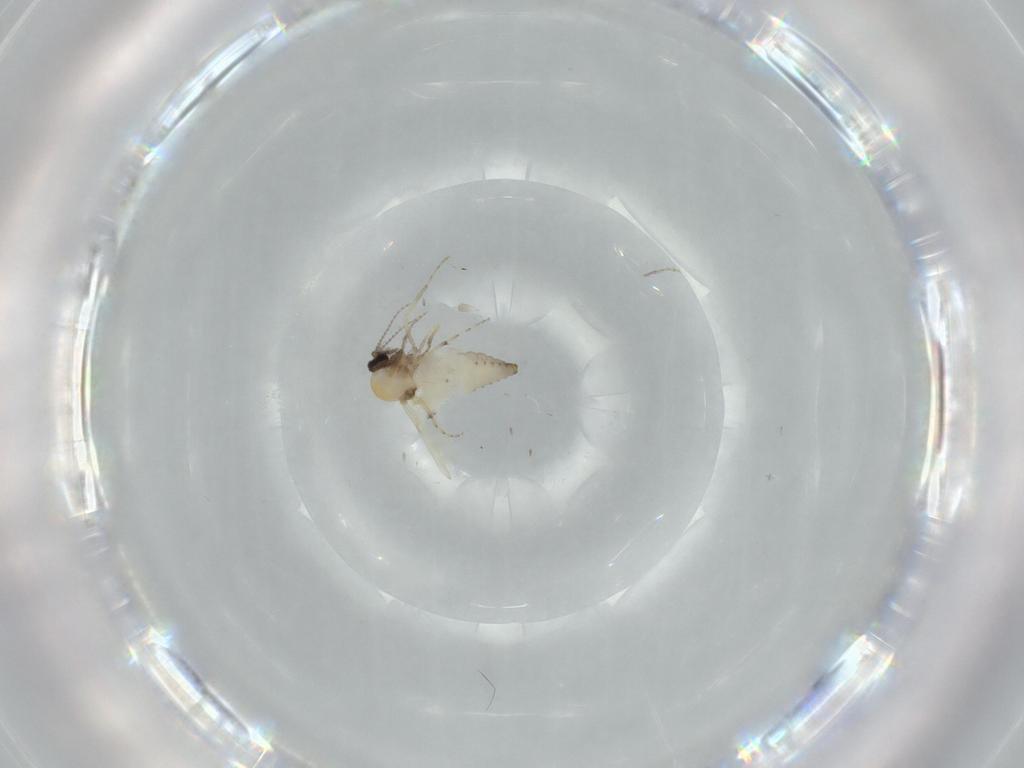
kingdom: Animalia
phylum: Arthropoda
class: Insecta
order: Diptera
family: Ceratopogonidae
